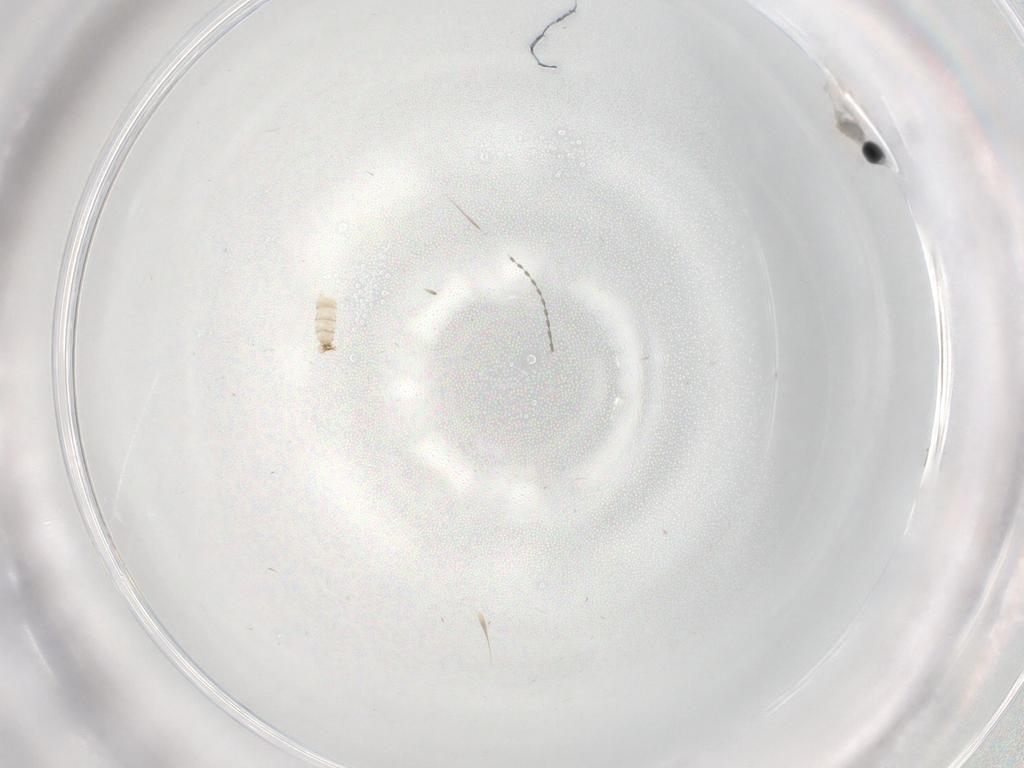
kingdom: Animalia
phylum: Arthropoda
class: Insecta
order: Diptera
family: Cecidomyiidae
